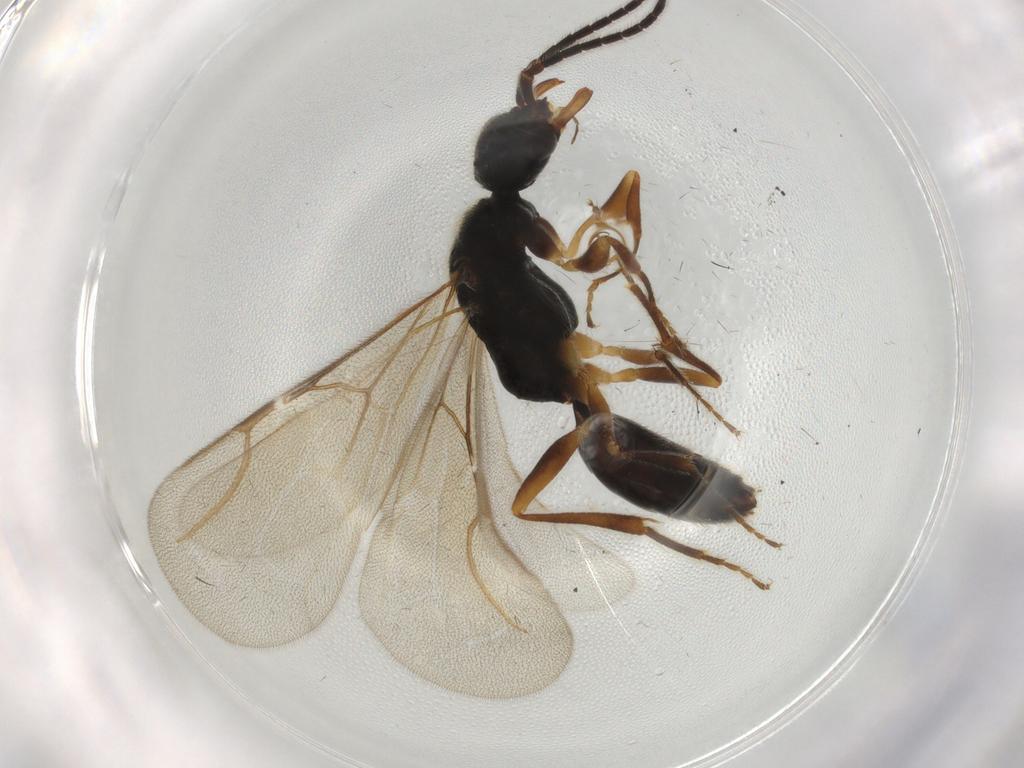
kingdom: Animalia
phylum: Arthropoda
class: Insecta
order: Hymenoptera
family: Bethylidae
